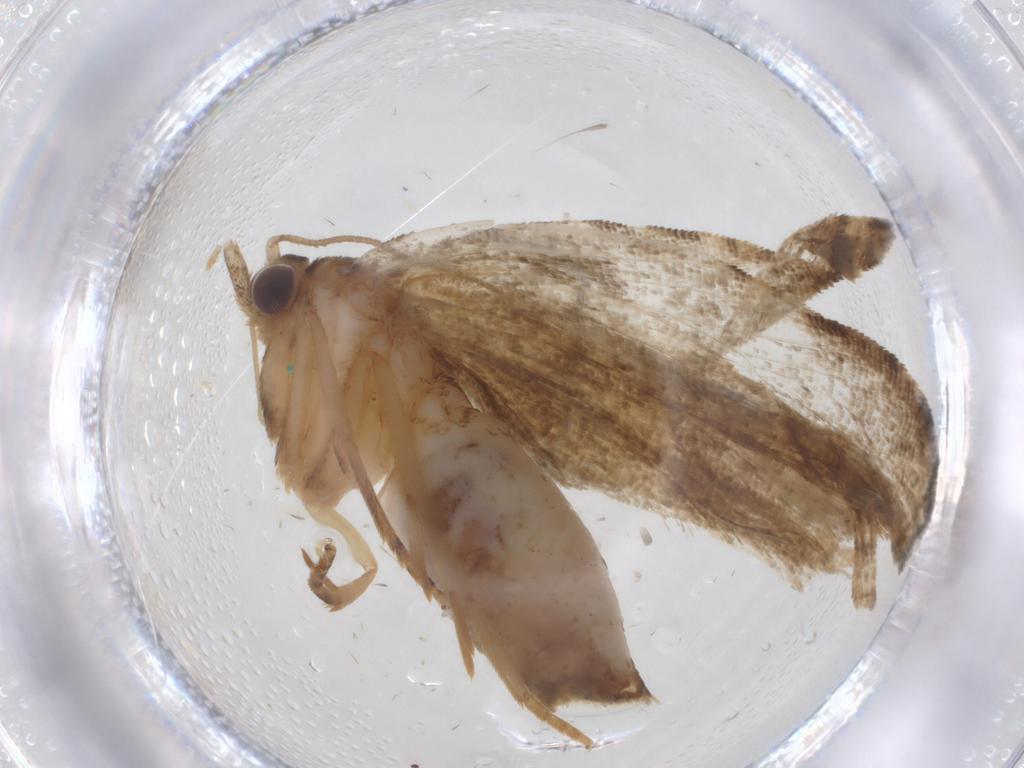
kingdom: Animalia
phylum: Arthropoda
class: Insecta
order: Lepidoptera
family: Tortricidae
